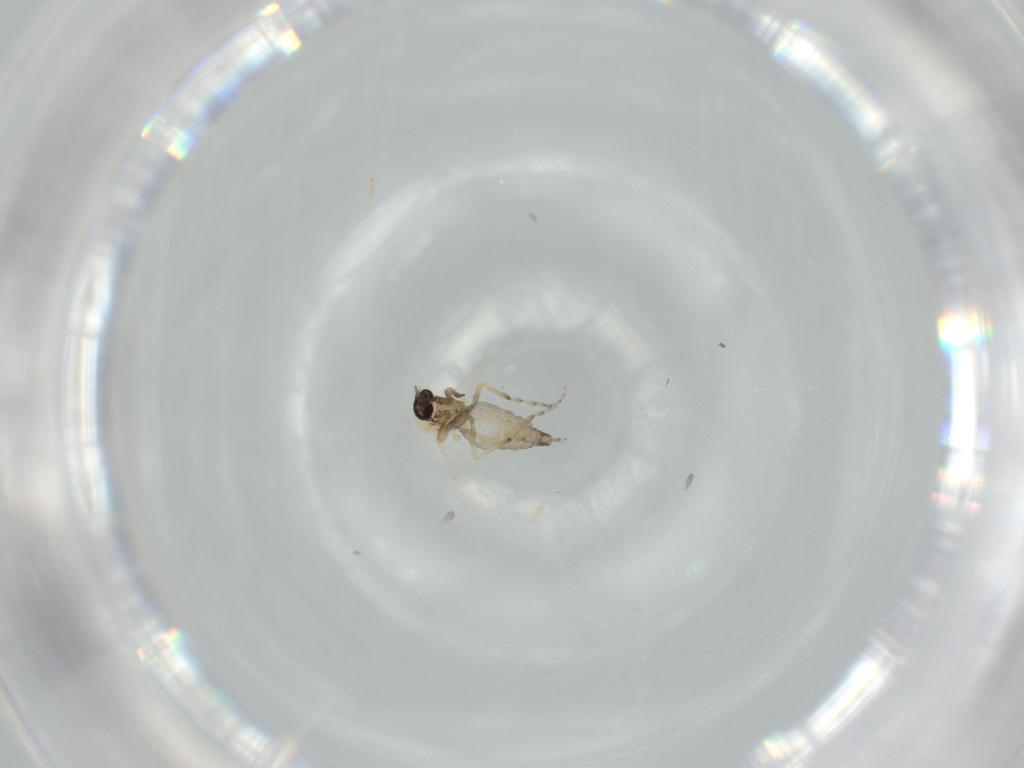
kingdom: Animalia
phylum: Arthropoda
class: Insecta
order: Diptera
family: Ceratopogonidae
